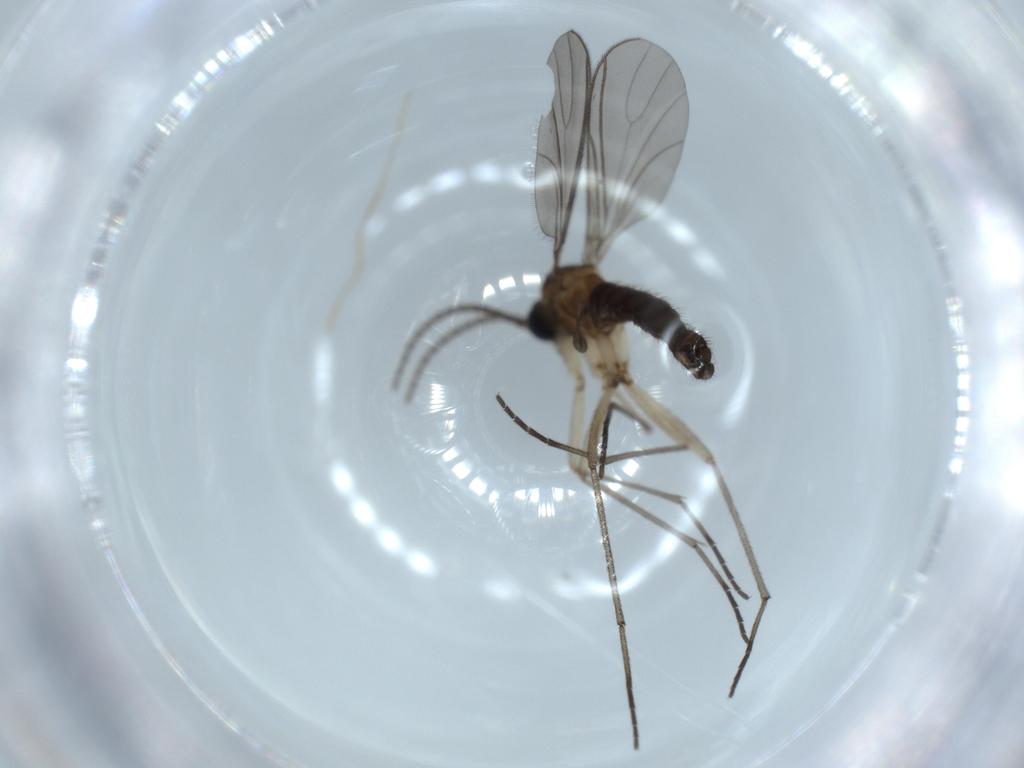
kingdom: Animalia
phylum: Arthropoda
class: Insecta
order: Diptera
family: Sciaridae
